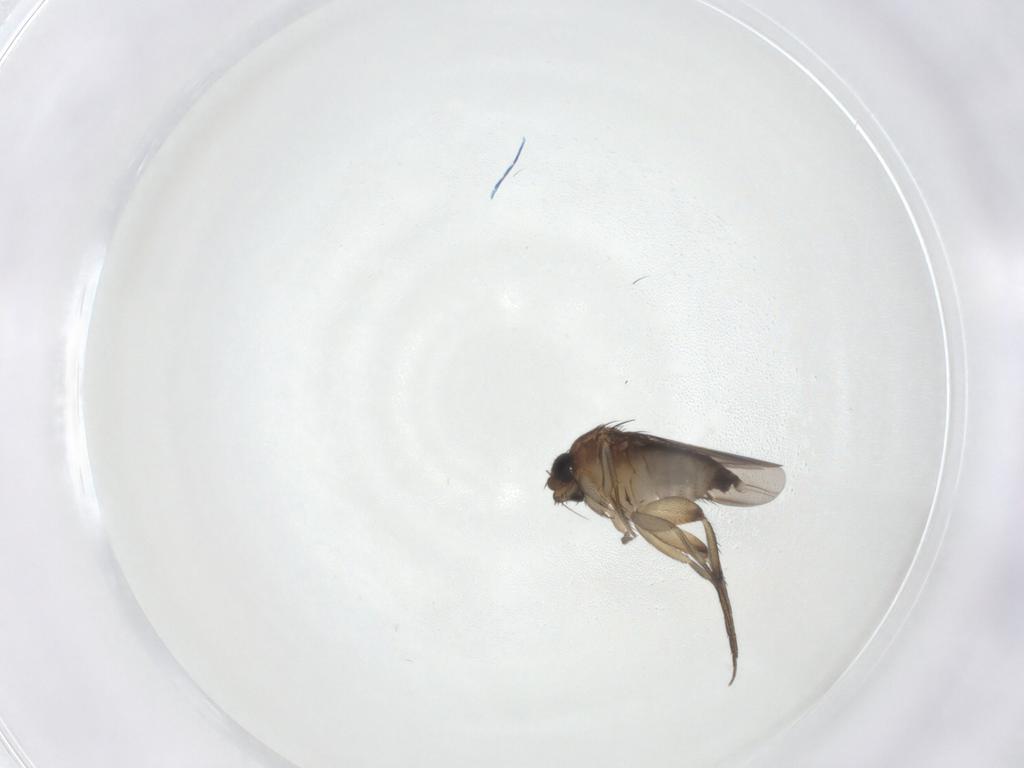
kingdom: Animalia
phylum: Arthropoda
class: Insecta
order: Diptera
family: Phoridae
